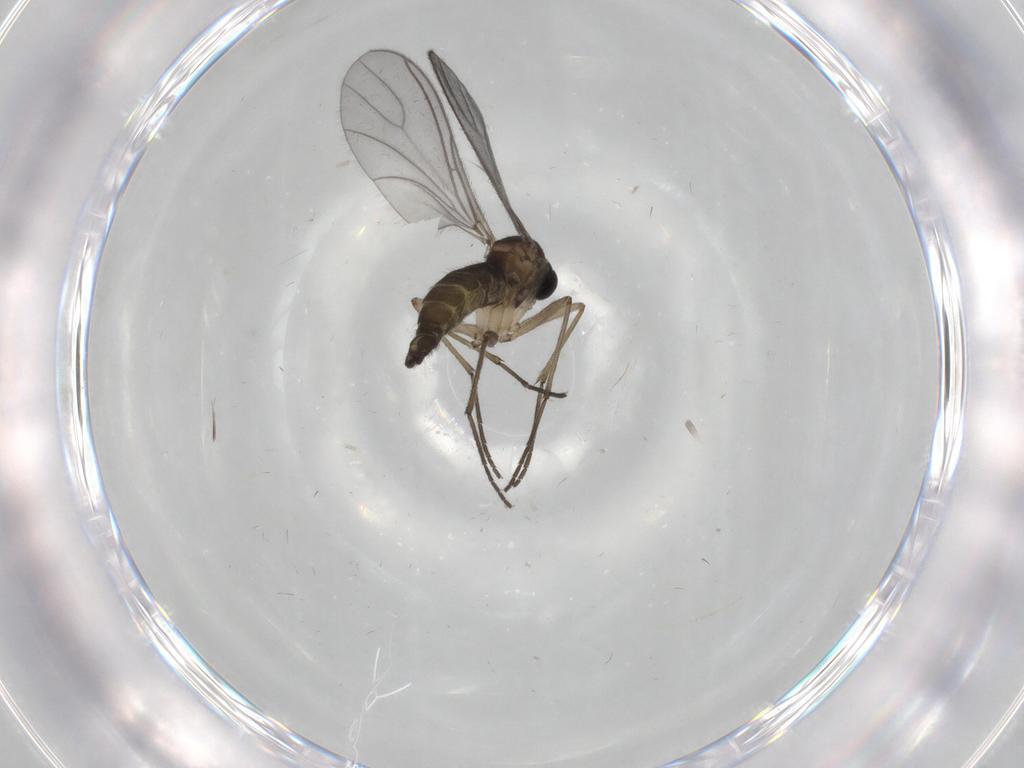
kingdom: Animalia
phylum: Arthropoda
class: Insecta
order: Diptera
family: Sciaridae
